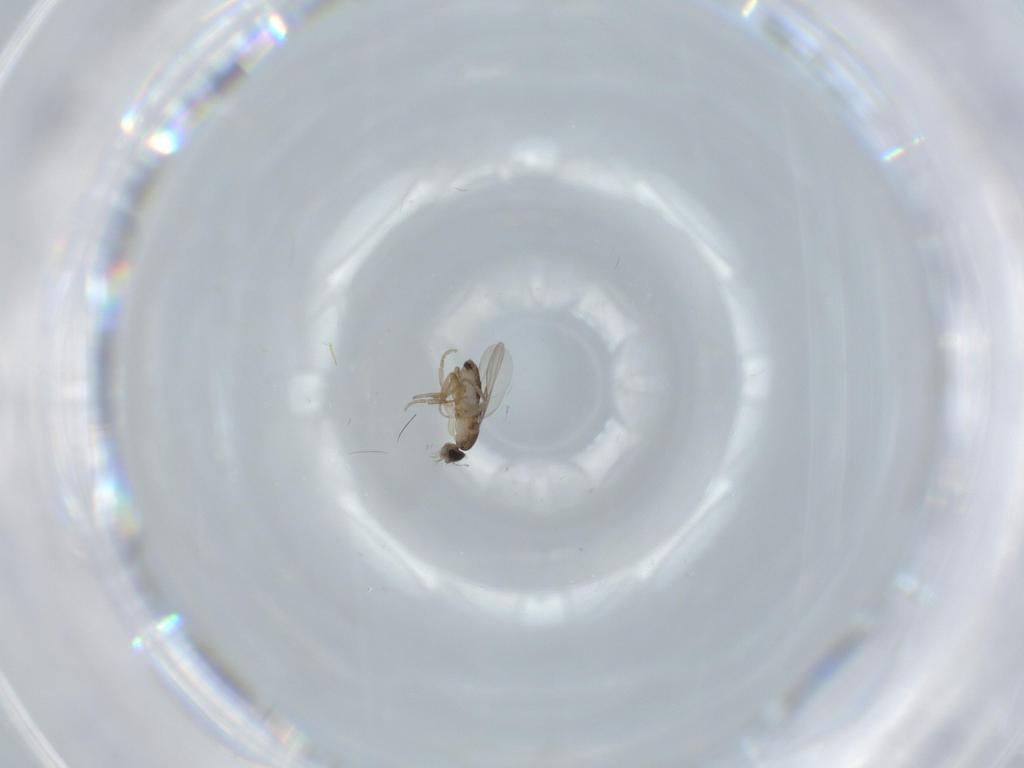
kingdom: Animalia
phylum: Arthropoda
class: Insecta
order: Diptera
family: Phoridae
